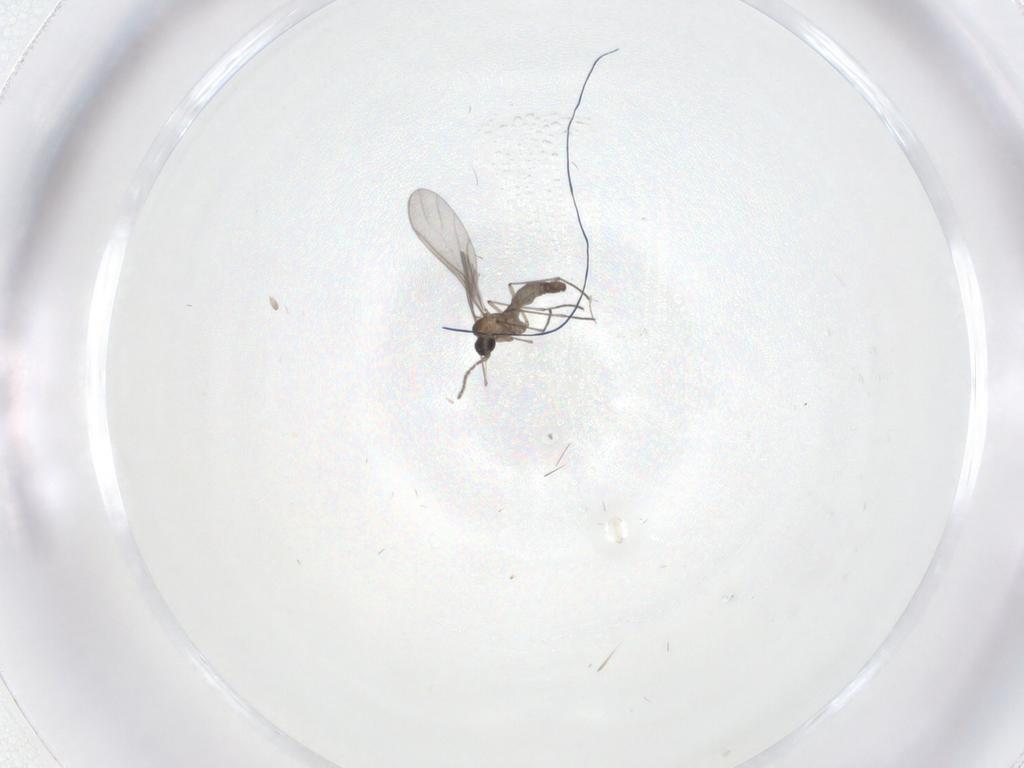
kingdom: Animalia
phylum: Arthropoda
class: Insecta
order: Diptera
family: Sciaridae
